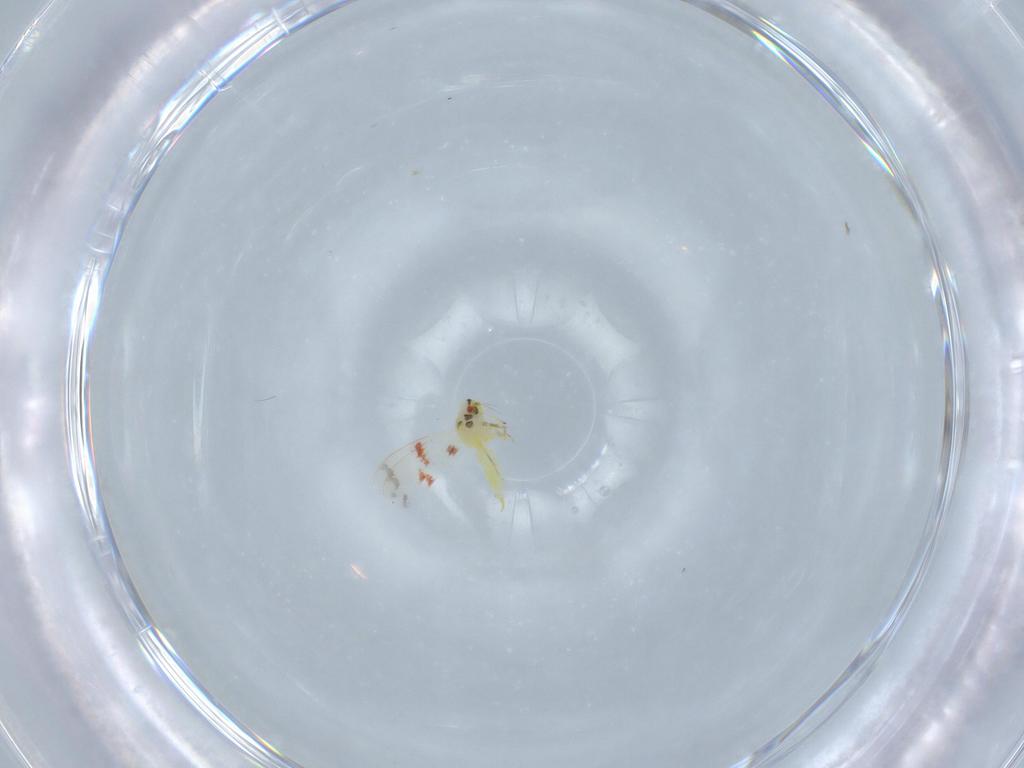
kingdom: Animalia
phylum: Arthropoda
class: Insecta
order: Hemiptera
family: Aleyrodidae
